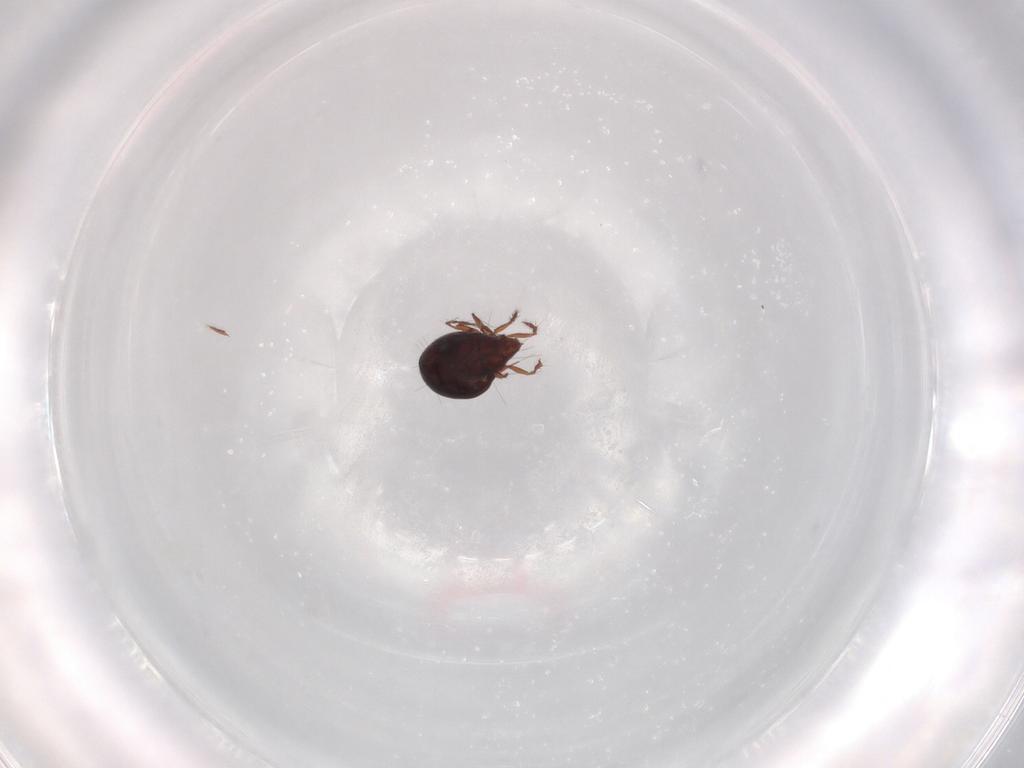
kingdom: Animalia
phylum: Arthropoda
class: Arachnida
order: Sarcoptiformes
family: Ceratoppiidae
